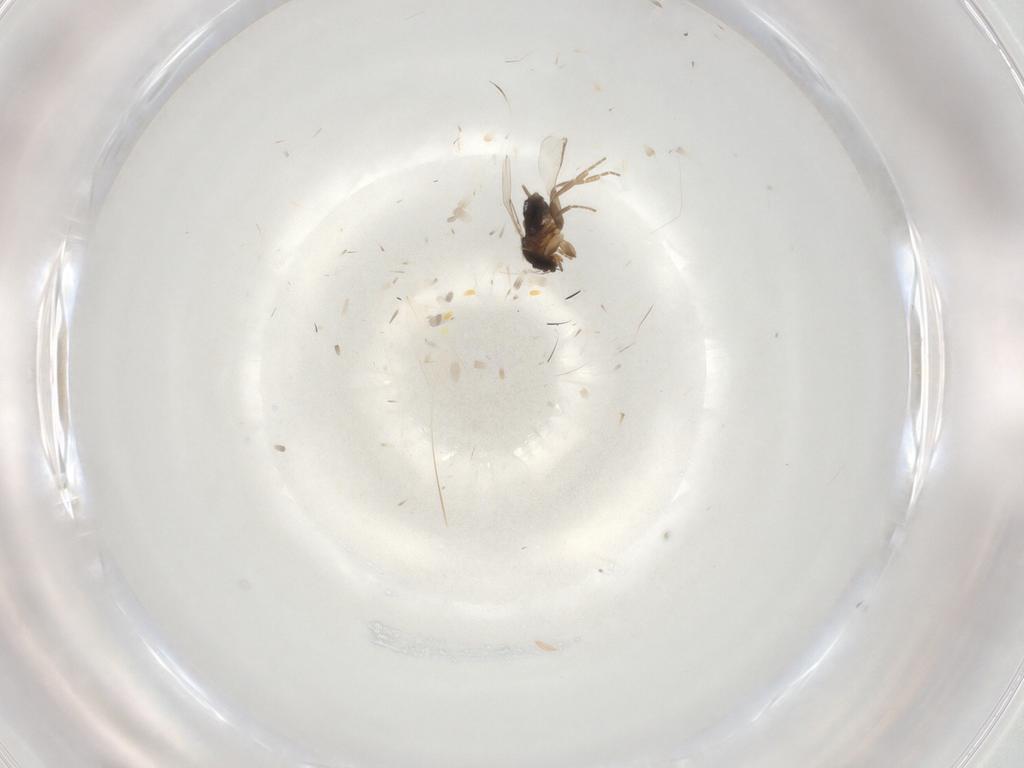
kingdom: Animalia
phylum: Arthropoda
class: Insecta
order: Diptera
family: Phoridae
